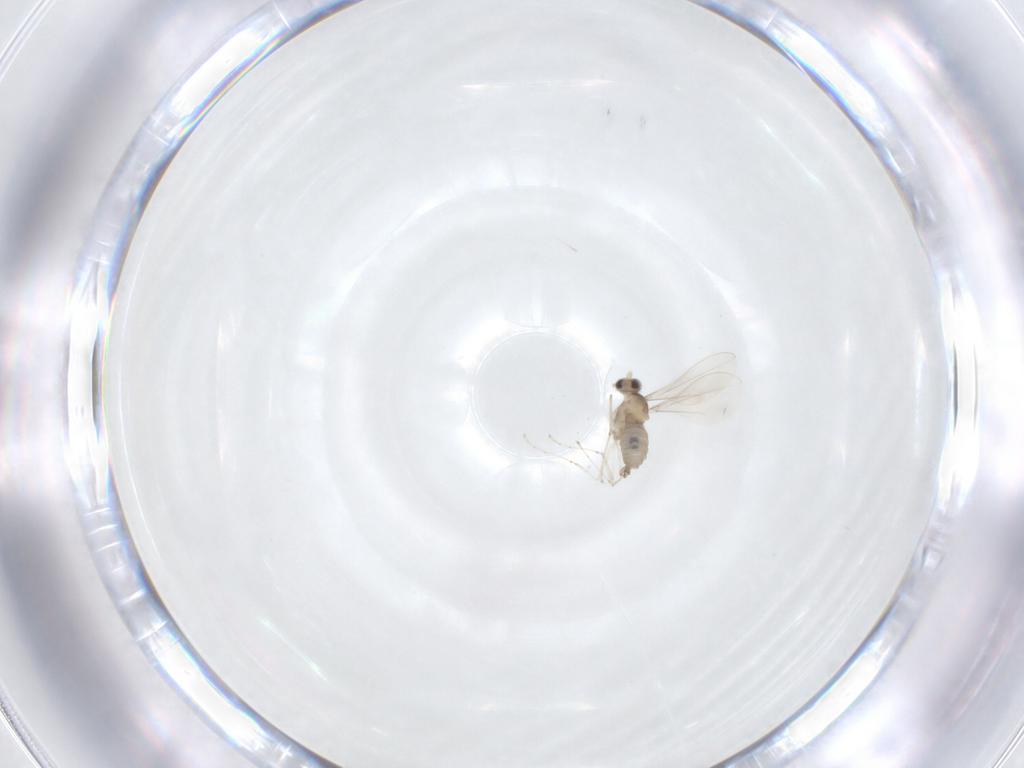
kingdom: Animalia
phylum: Arthropoda
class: Insecta
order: Diptera
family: Cecidomyiidae
